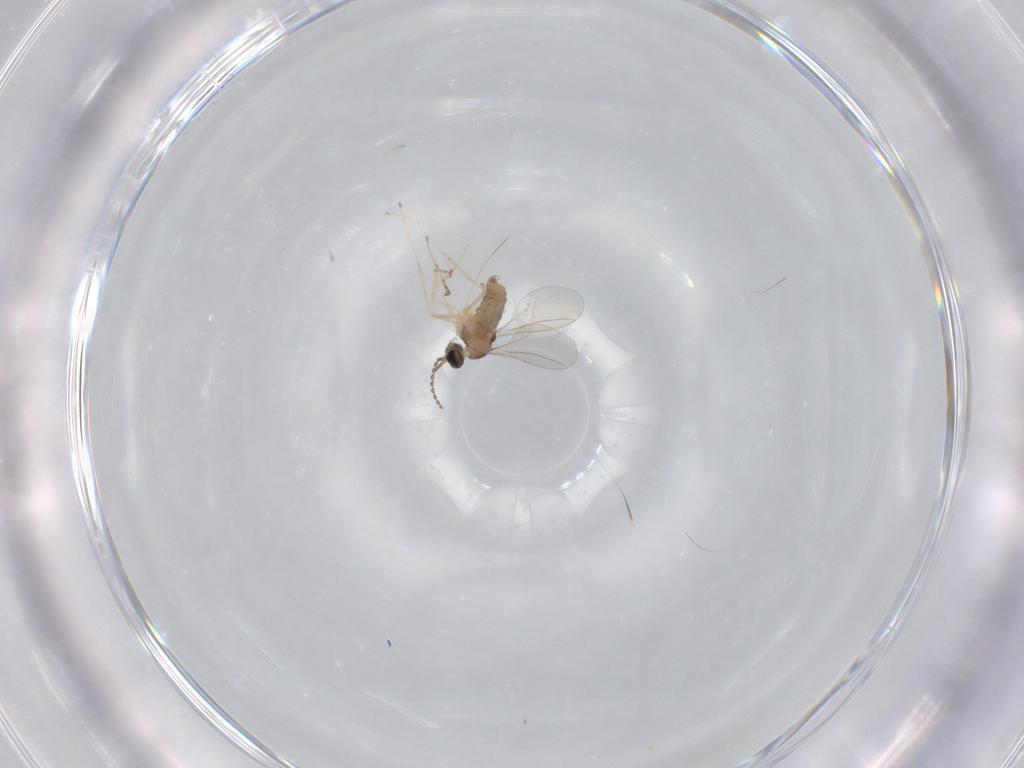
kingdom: Animalia
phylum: Arthropoda
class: Insecta
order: Diptera
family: Cecidomyiidae
